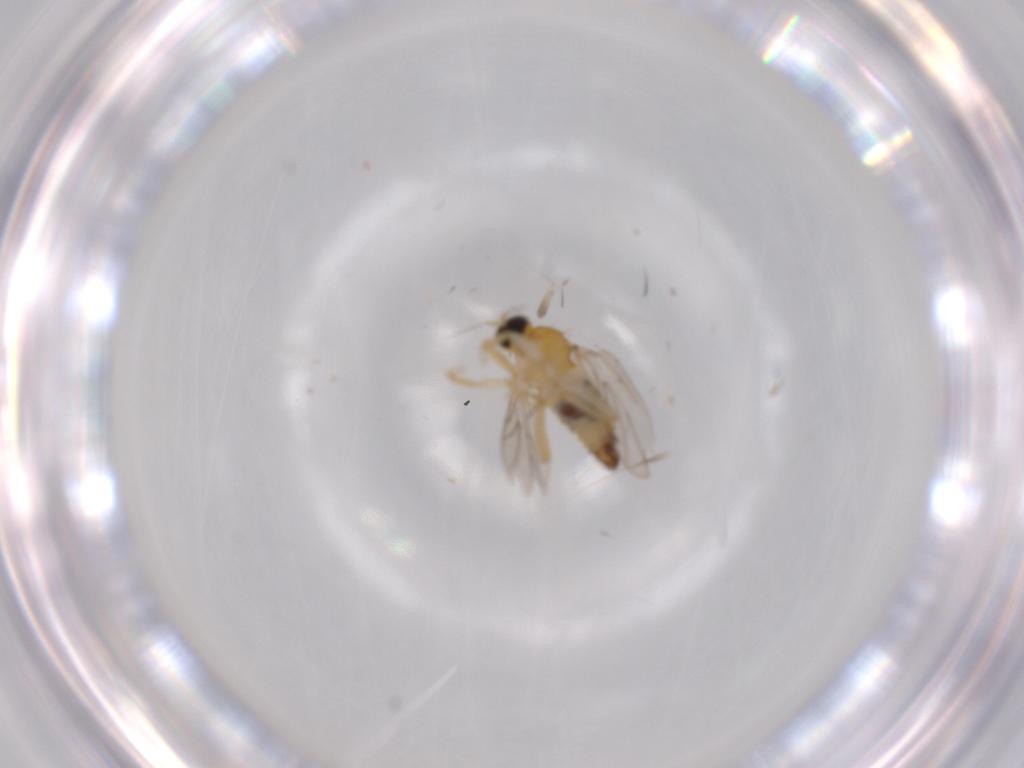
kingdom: Animalia
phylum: Arthropoda
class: Insecta
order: Diptera
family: Hybotidae
